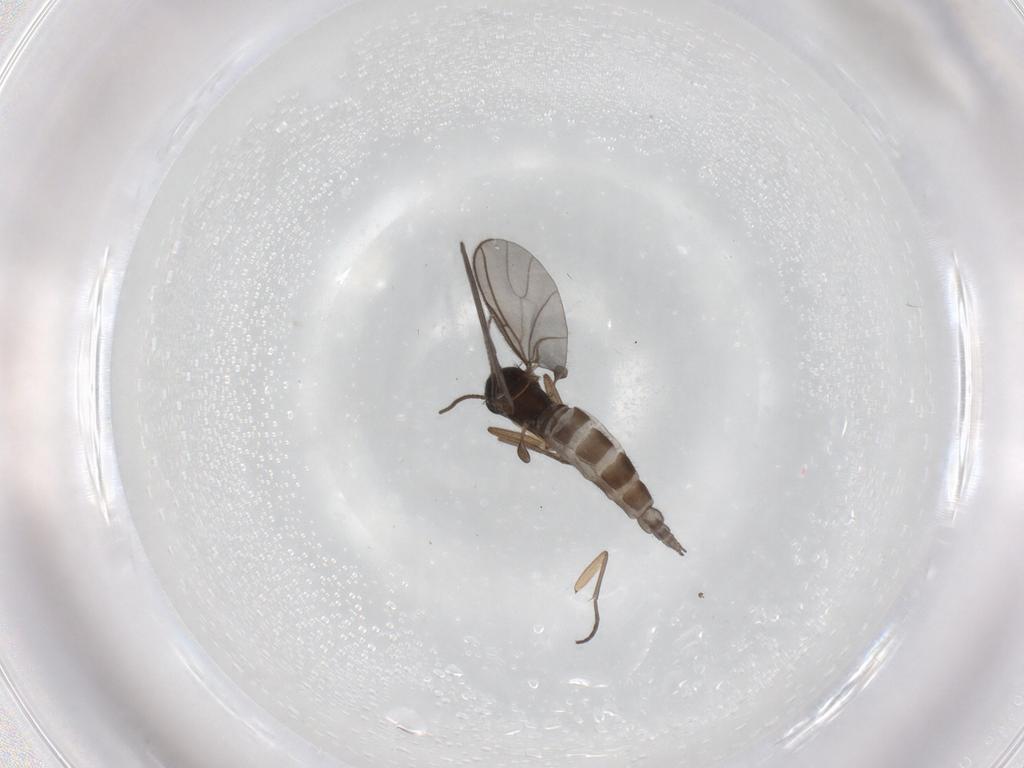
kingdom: Animalia
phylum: Arthropoda
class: Insecta
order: Diptera
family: Sciaridae
